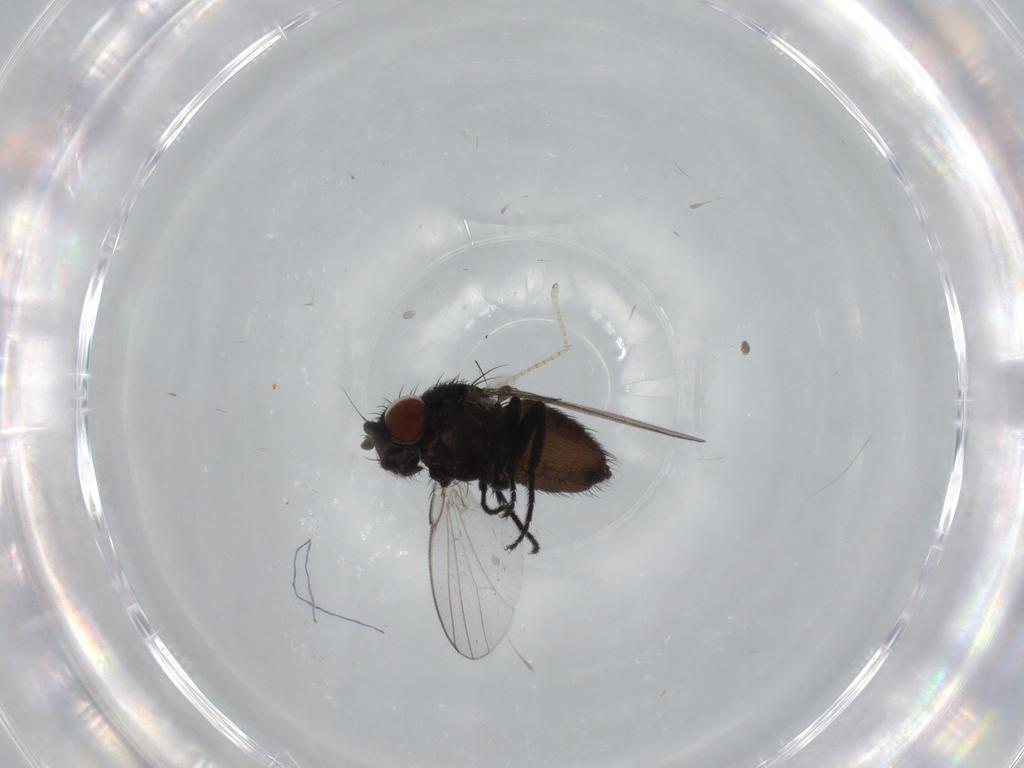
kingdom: Animalia
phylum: Arthropoda
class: Insecta
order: Diptera
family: Milichiidae
